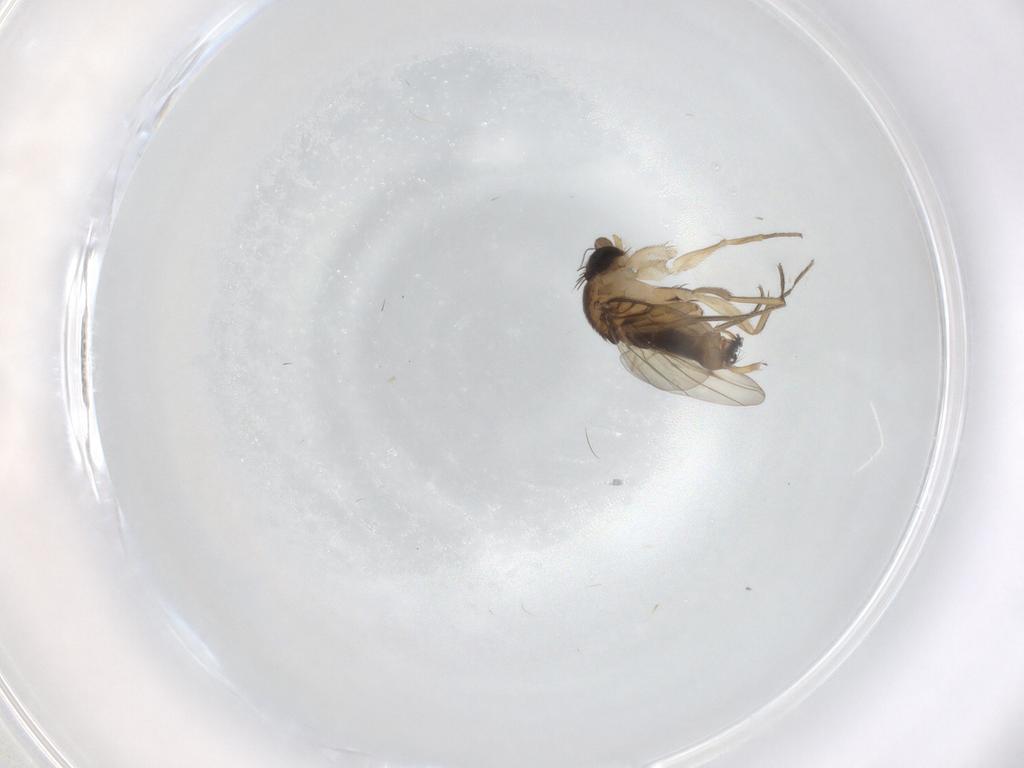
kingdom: Animalia
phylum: Arthropoda
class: Insecta
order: Diptera
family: Phoridae
